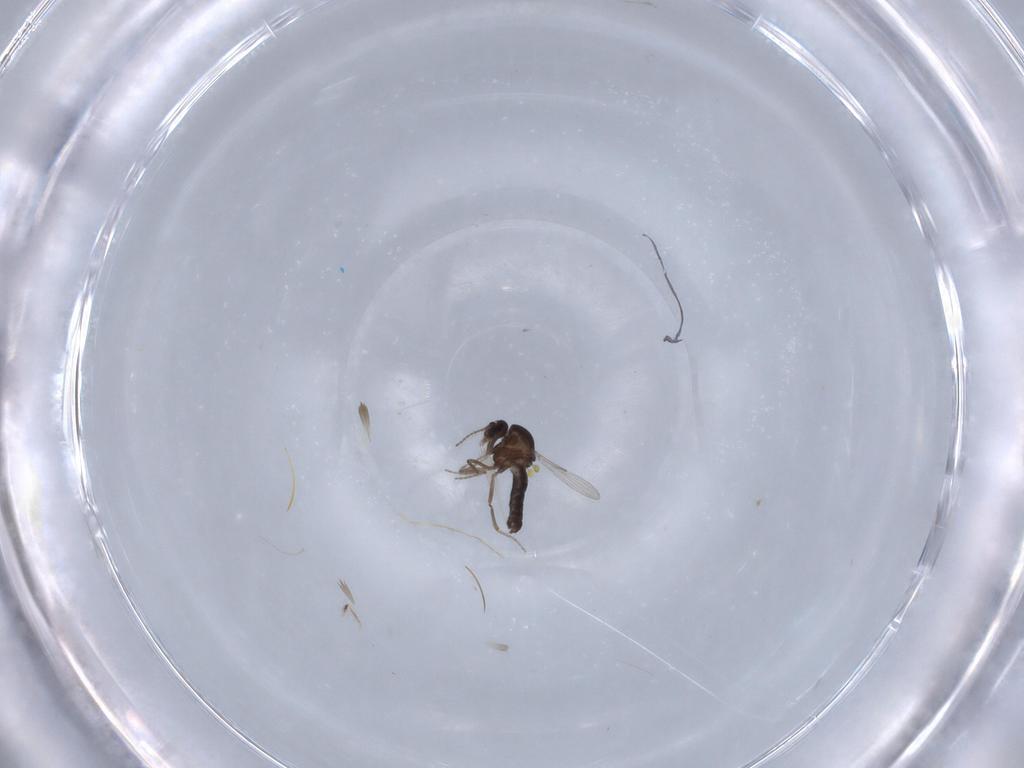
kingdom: Animalia
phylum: Arthropoda
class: Insecta
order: Diptera
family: Ceratopogonidae
